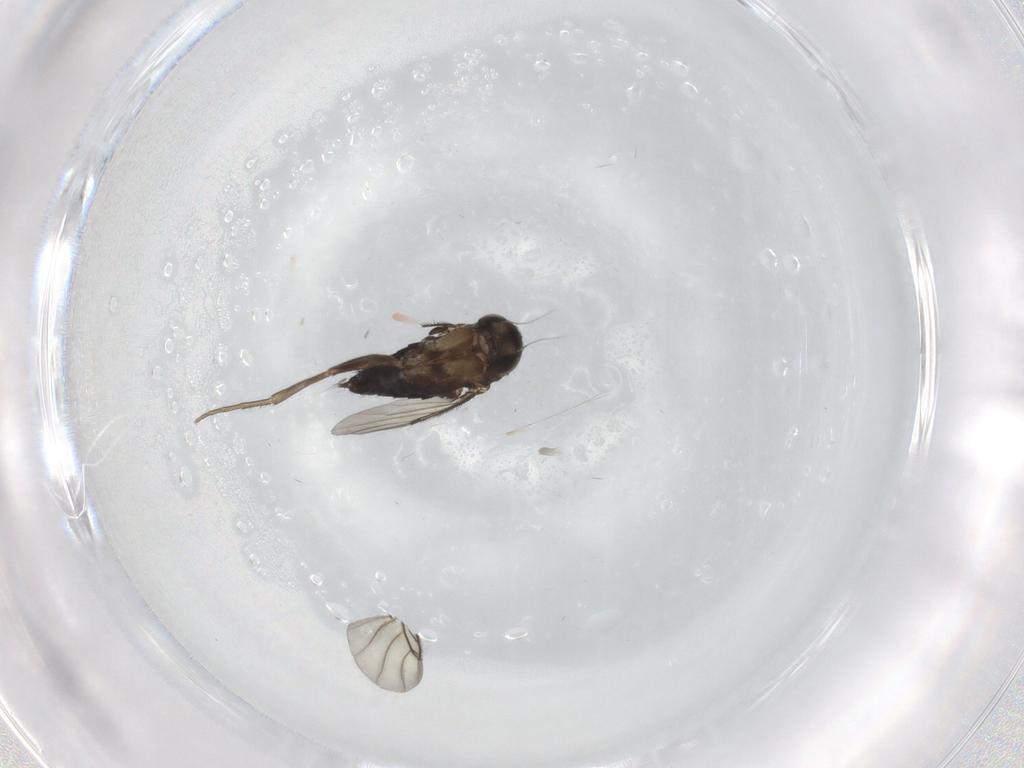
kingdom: Animalia
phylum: Arthropoda
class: Insecta
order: Diptera
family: Phoridae
